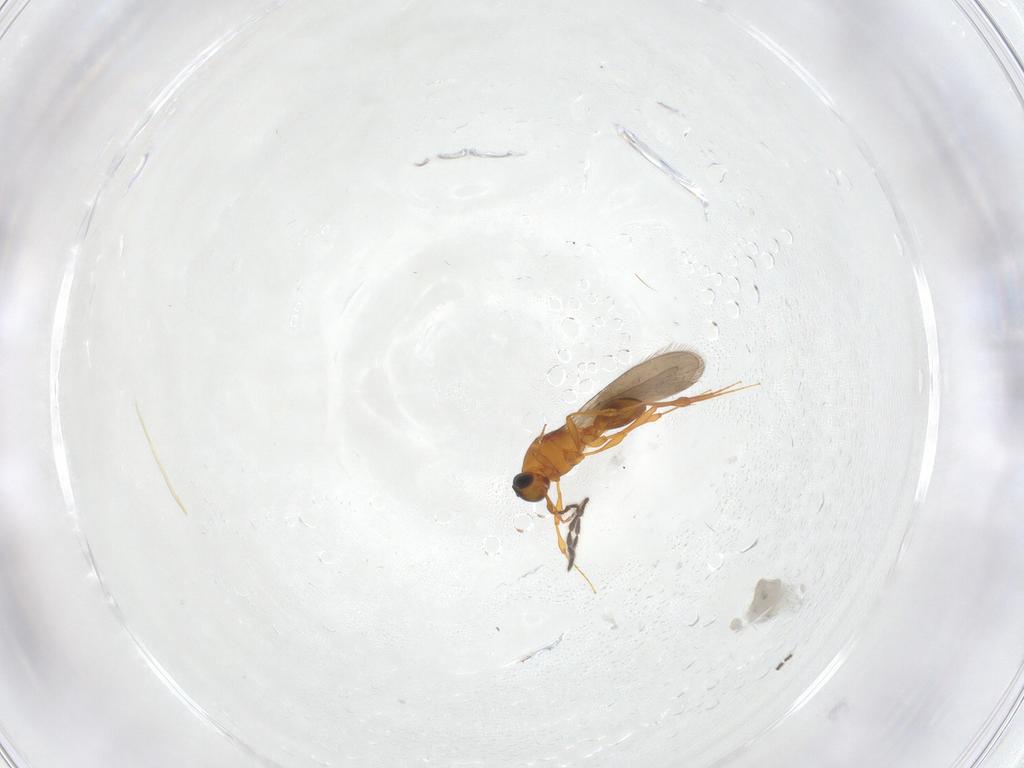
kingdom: Animalia
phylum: Arthropoda
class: Insecta
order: Hymenoptera
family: Platygastridae
